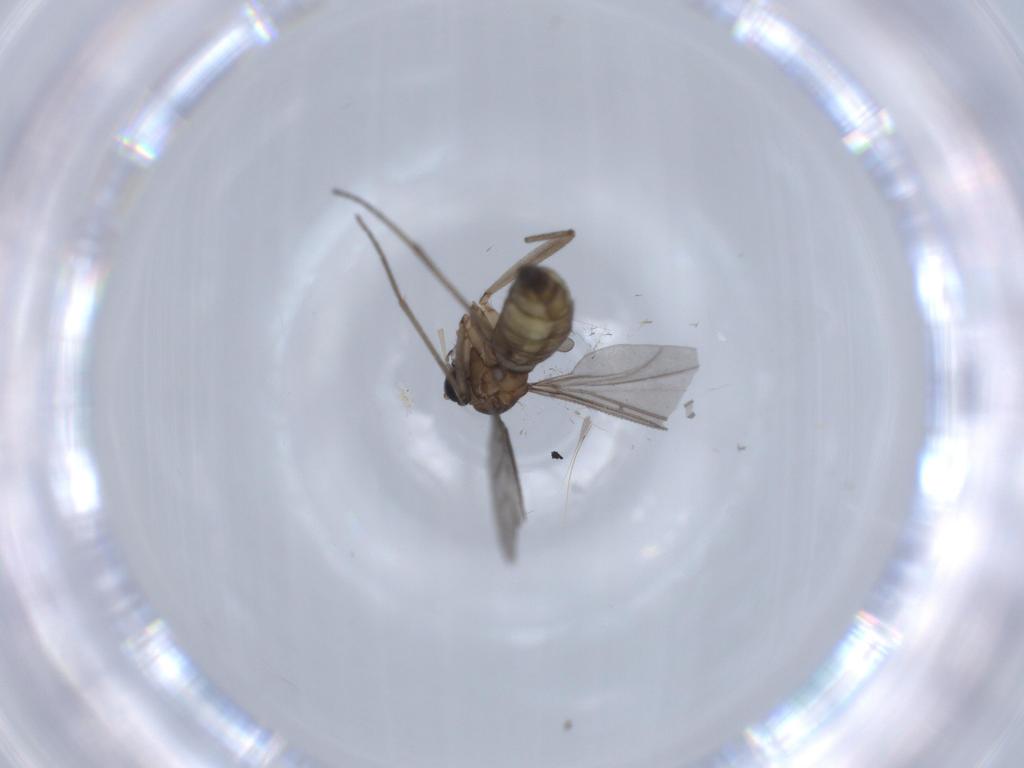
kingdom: Animalia
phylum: Arthropoda
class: Insecta
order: Diptera
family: Sciaridae
